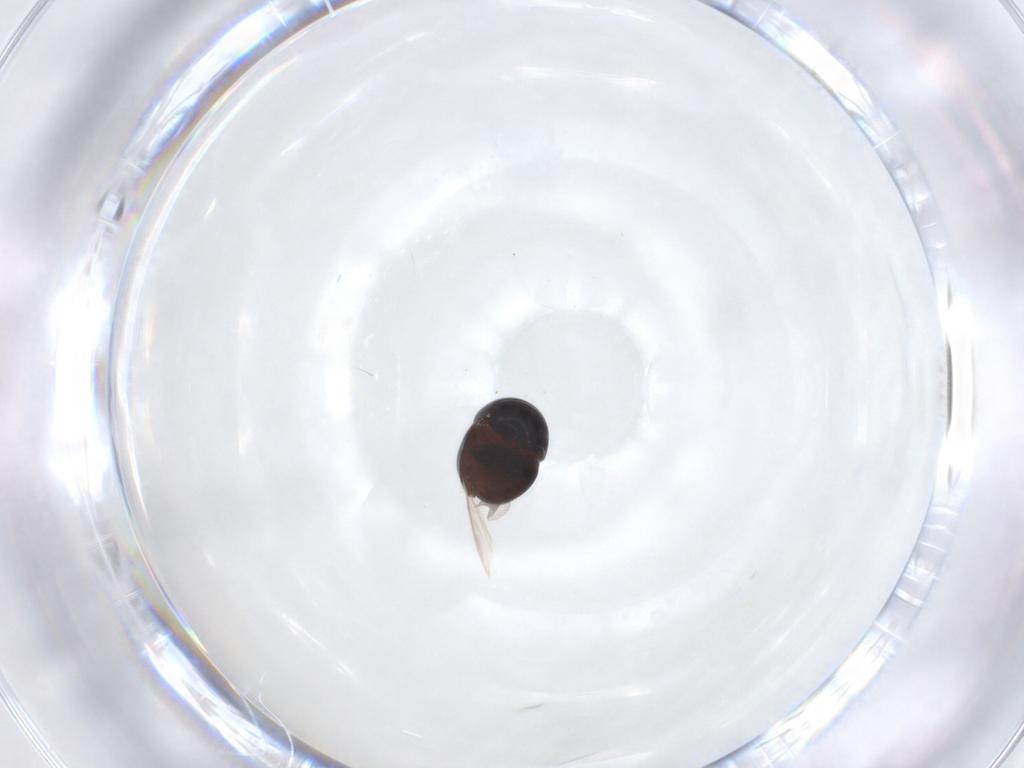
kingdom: Animalia
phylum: Arthropoda
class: Insecta
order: Coleoptera
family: Cybocephalidae
